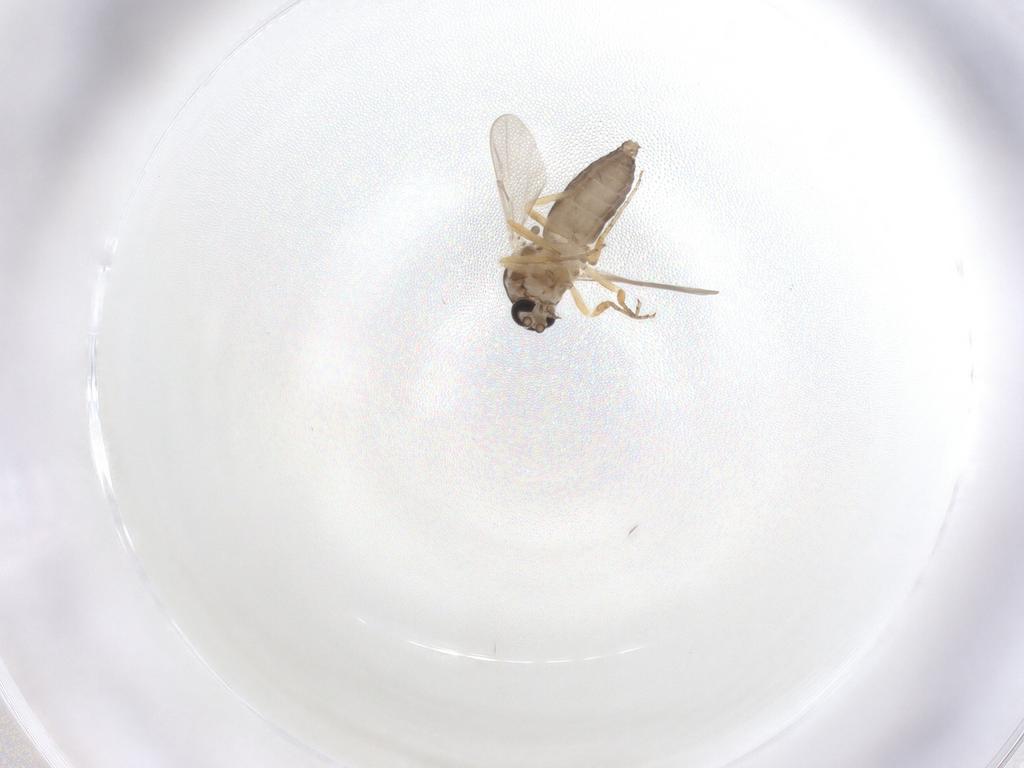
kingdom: Animalia
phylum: Arthropoda
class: Insecta
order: Diptera
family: Ceratopogonidae
